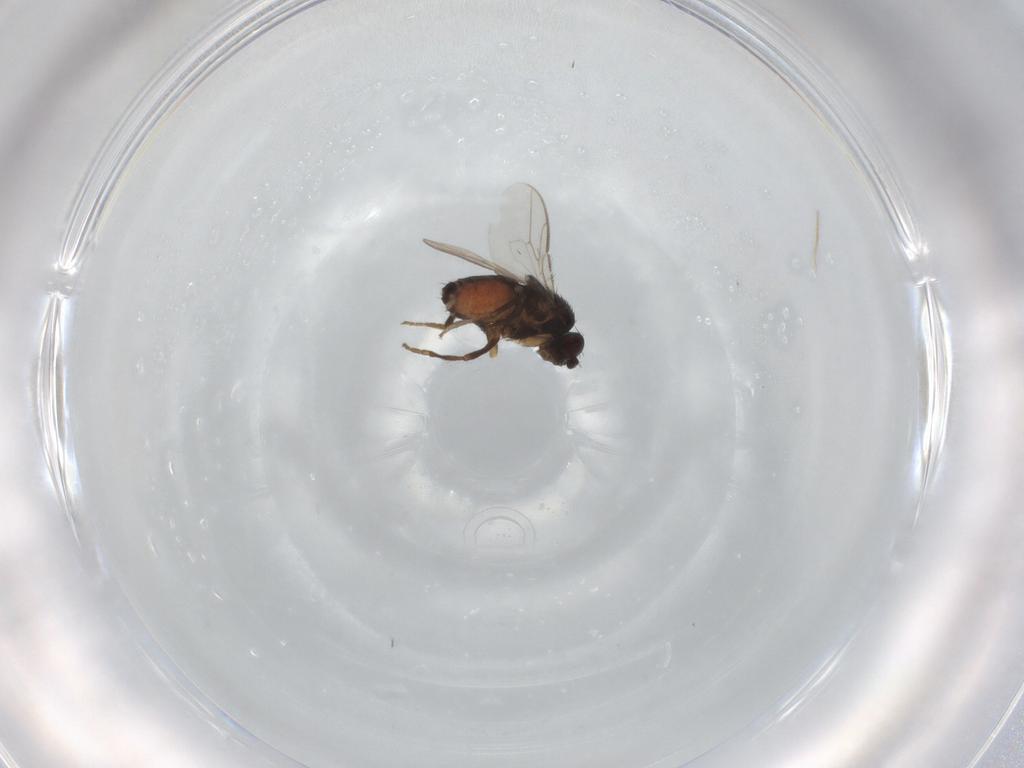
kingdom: Animalia
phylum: Arthropoda
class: Insecta
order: Diptera
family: Sphaeroceridae
